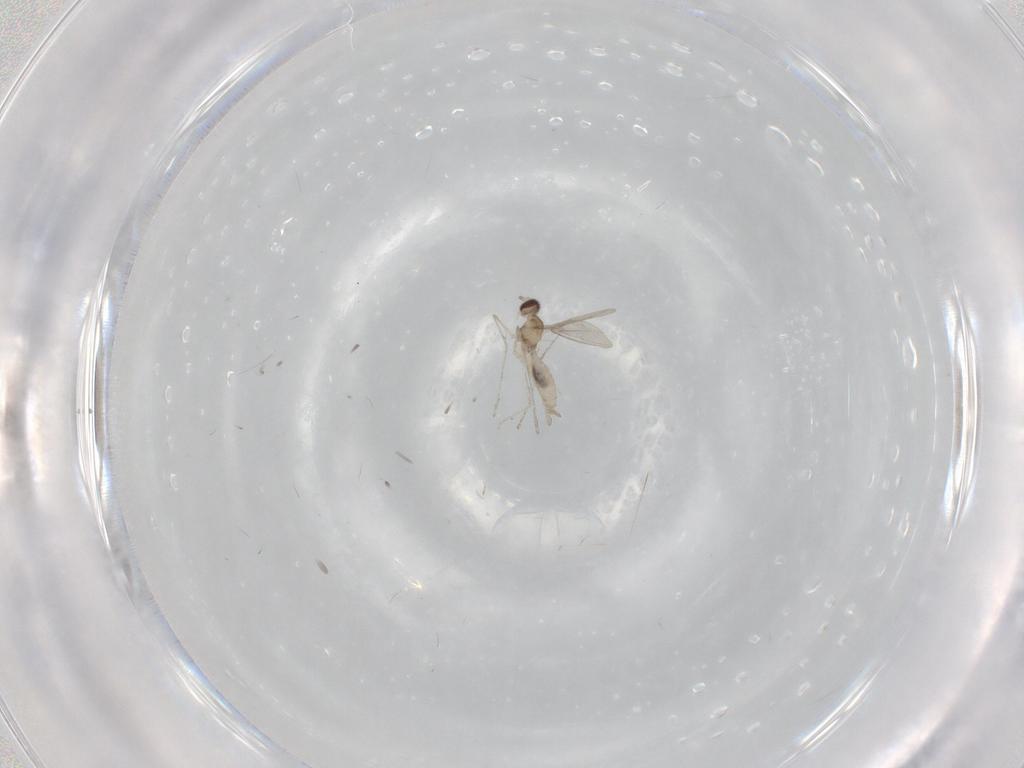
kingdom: Animalia
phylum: Arthropoda
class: Insecta
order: Diptera
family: Cecidomyiidae
